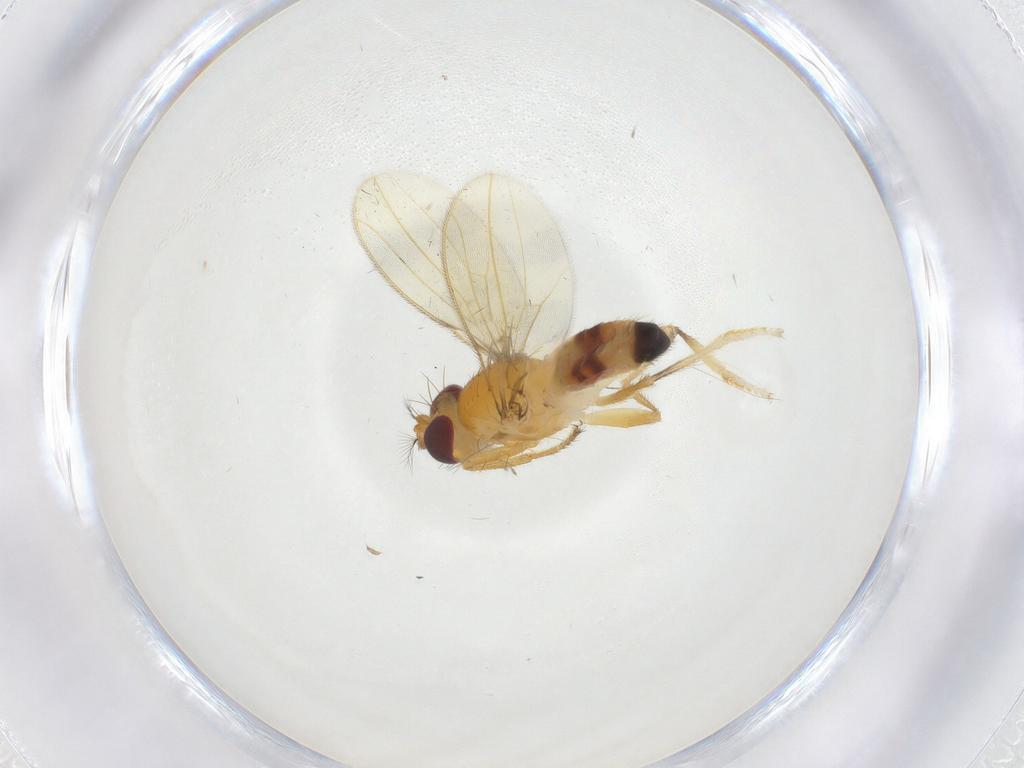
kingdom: Animalia
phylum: Arthropoda
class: Insecta
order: Diptera
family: Periscelididae
